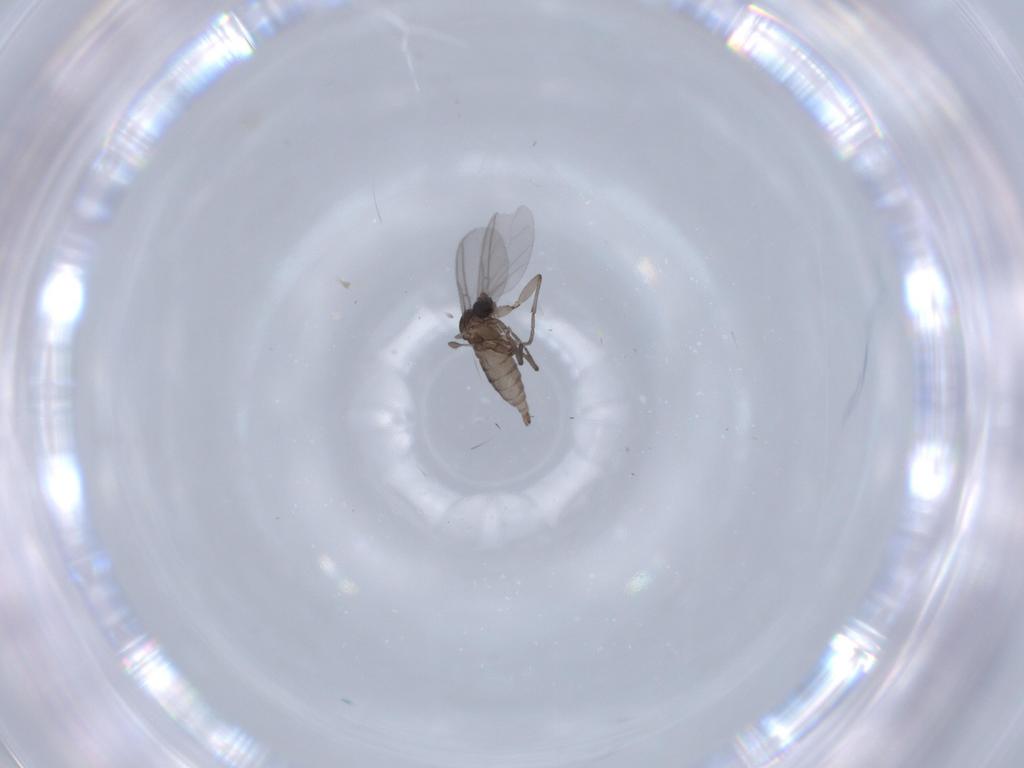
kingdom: Animalia
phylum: Arthropoda
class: Insecta
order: Diptera
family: Sciaridae
